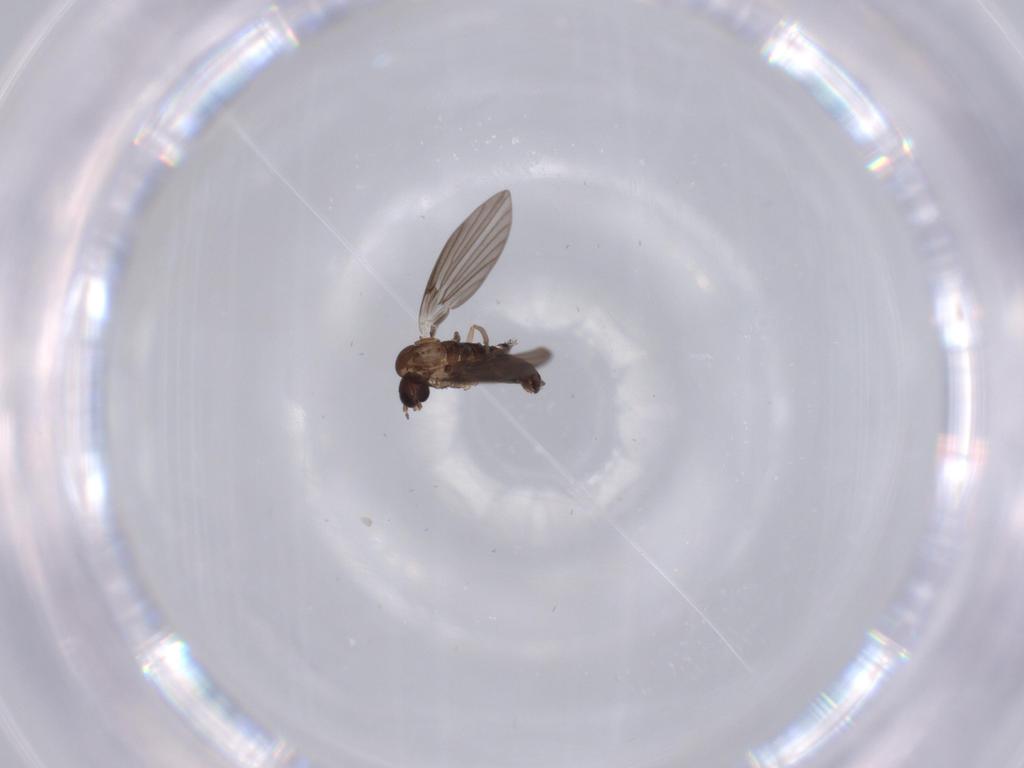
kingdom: Animalia
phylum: Arthropoda
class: Insecta
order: Diptera
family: Psychodidae
